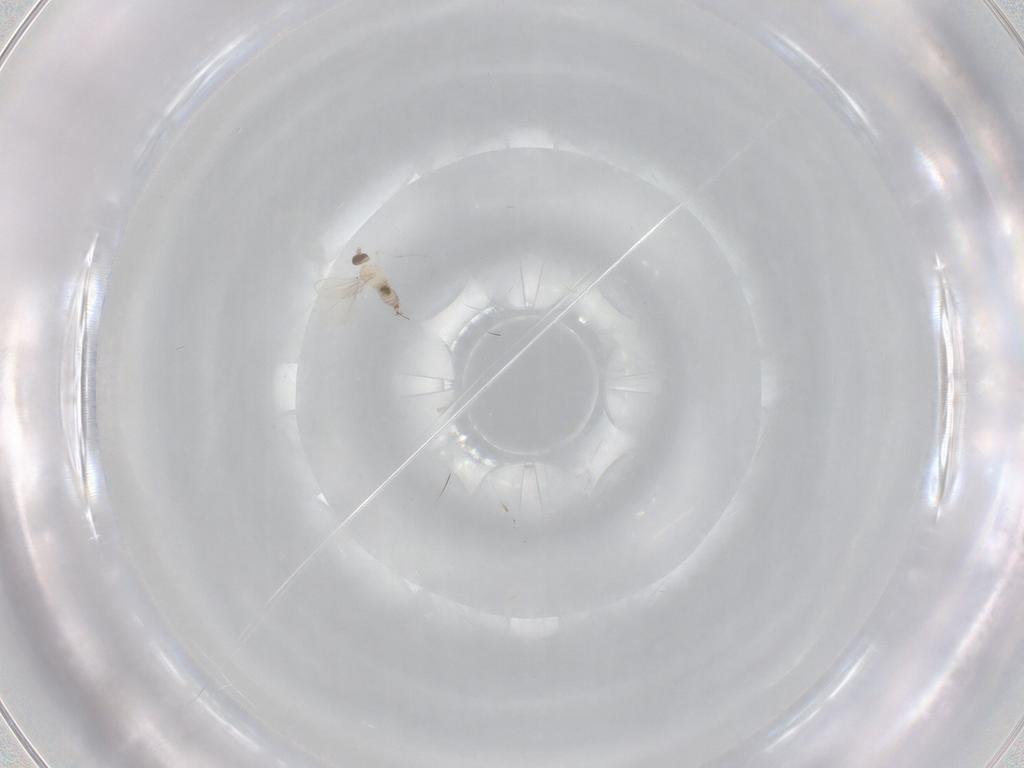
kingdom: Animalia
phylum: Arthropoda
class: Insecta
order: Diptera
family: Cecidomyiidae
